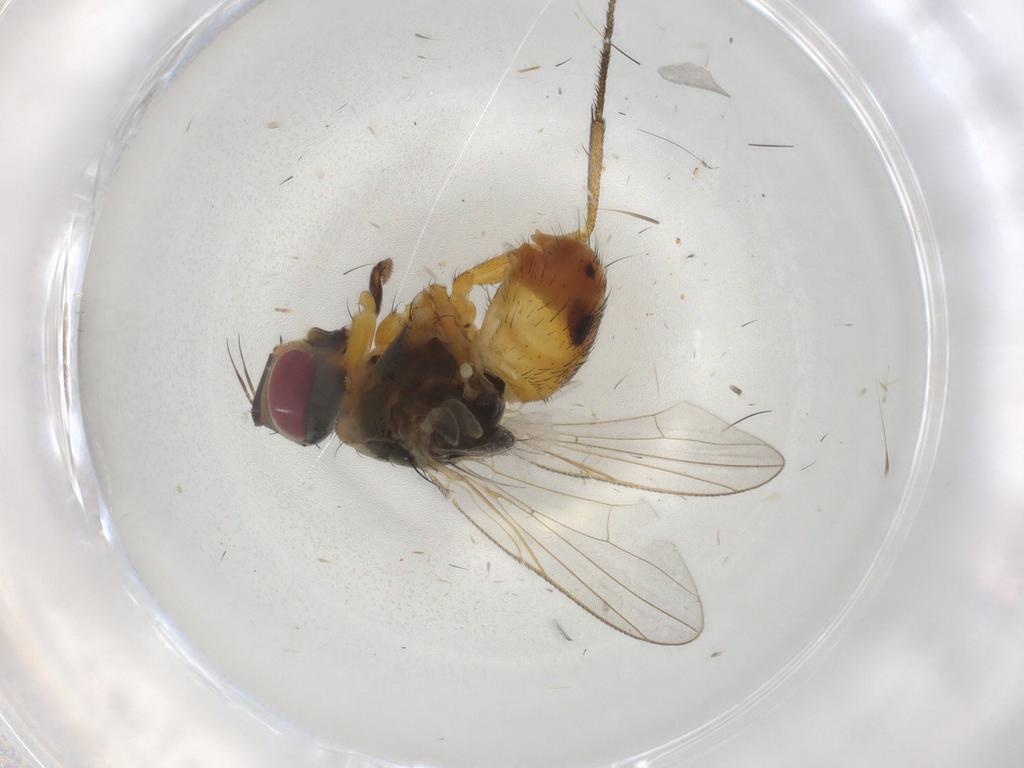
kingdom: Animalia
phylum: Arthropoda
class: Insecta
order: Diptera
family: Muscidae
